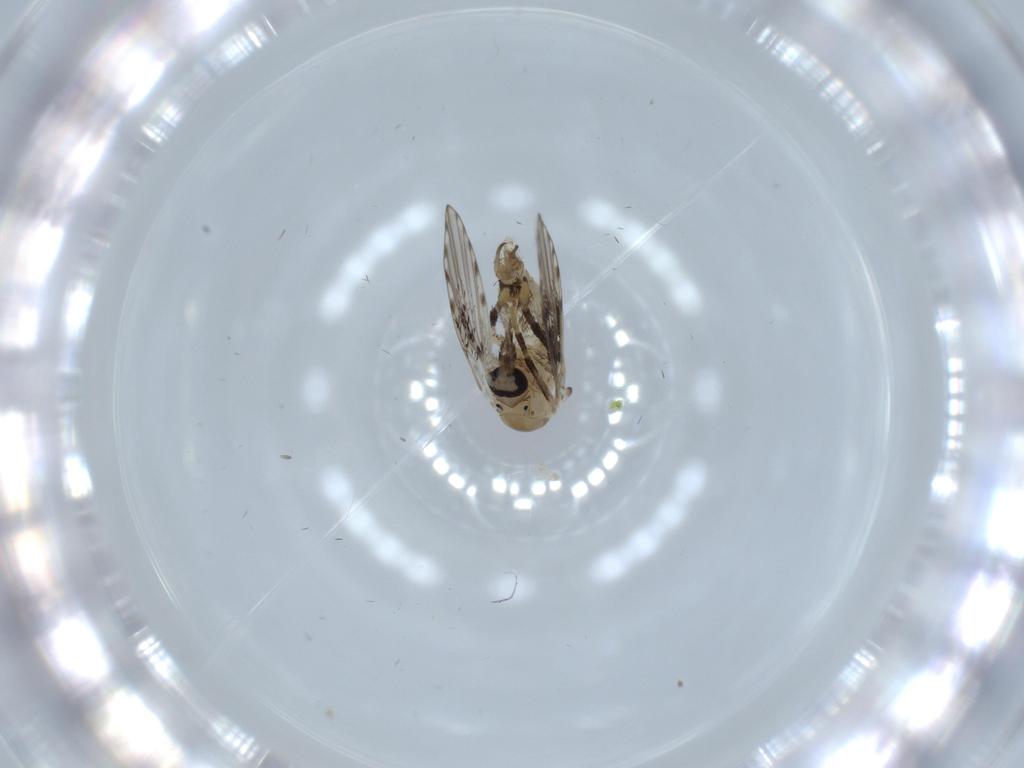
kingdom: Animalia
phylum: Arthropoda
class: Insecta
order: Diptera
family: Psychodidae
